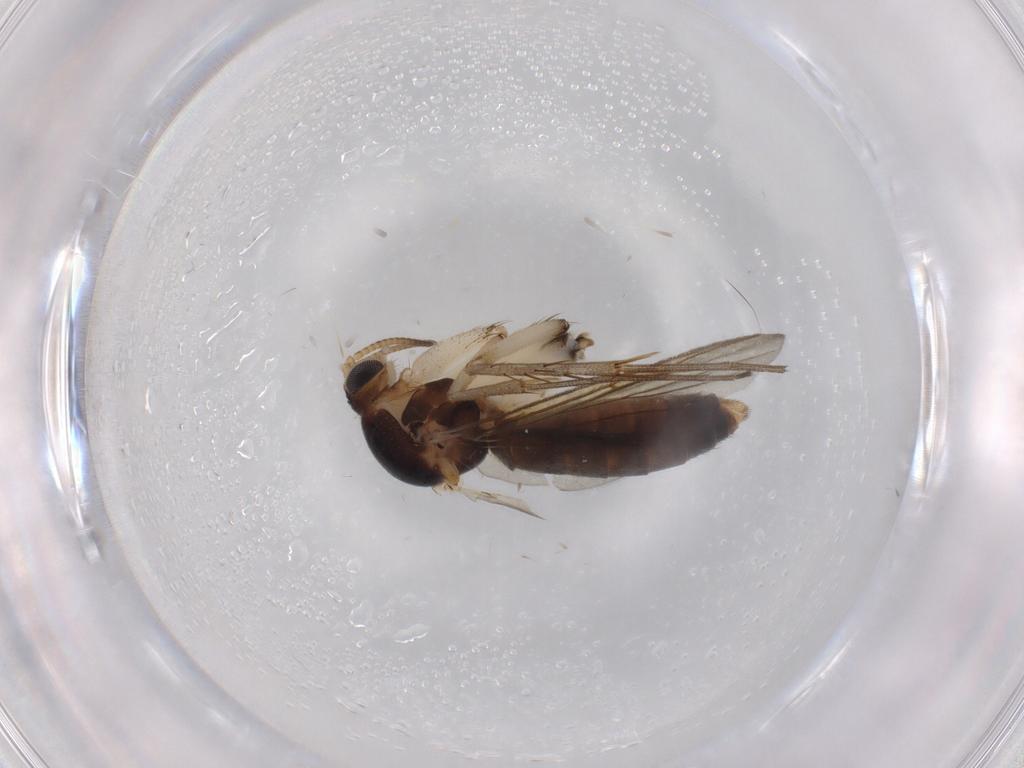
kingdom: Animalia
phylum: Arthropoda
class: Insecta
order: Diptera
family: Mycetophilidae
